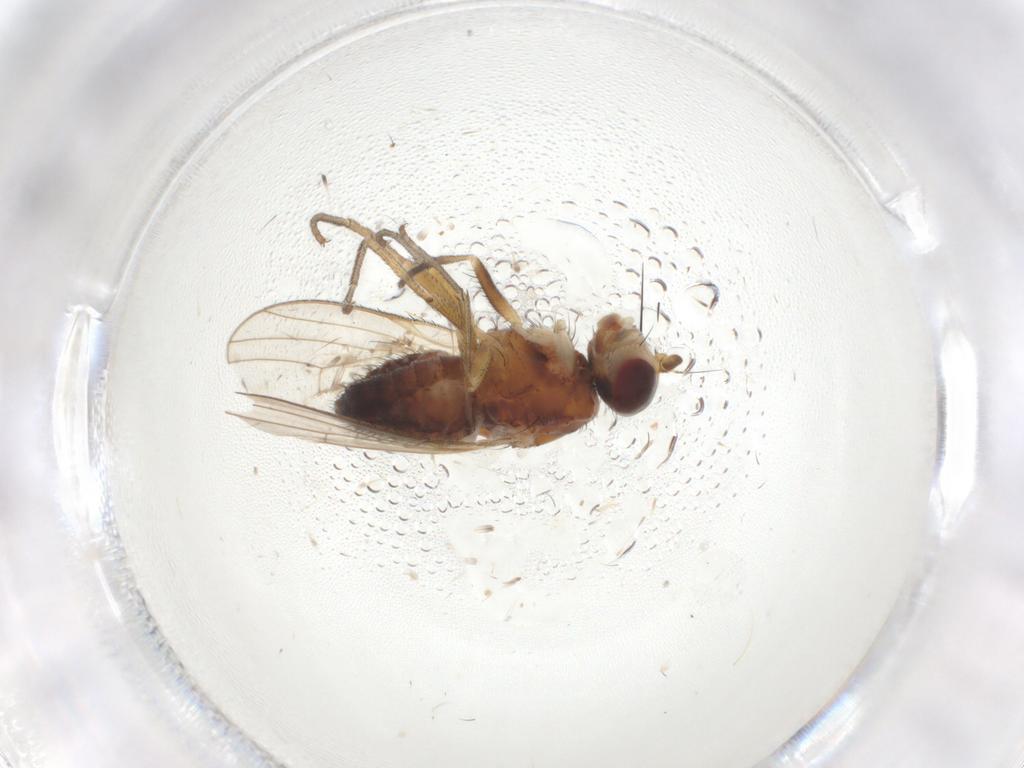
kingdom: Animalia
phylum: Arthropoda
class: Insecta
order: Diptera
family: Heleomyzidae
